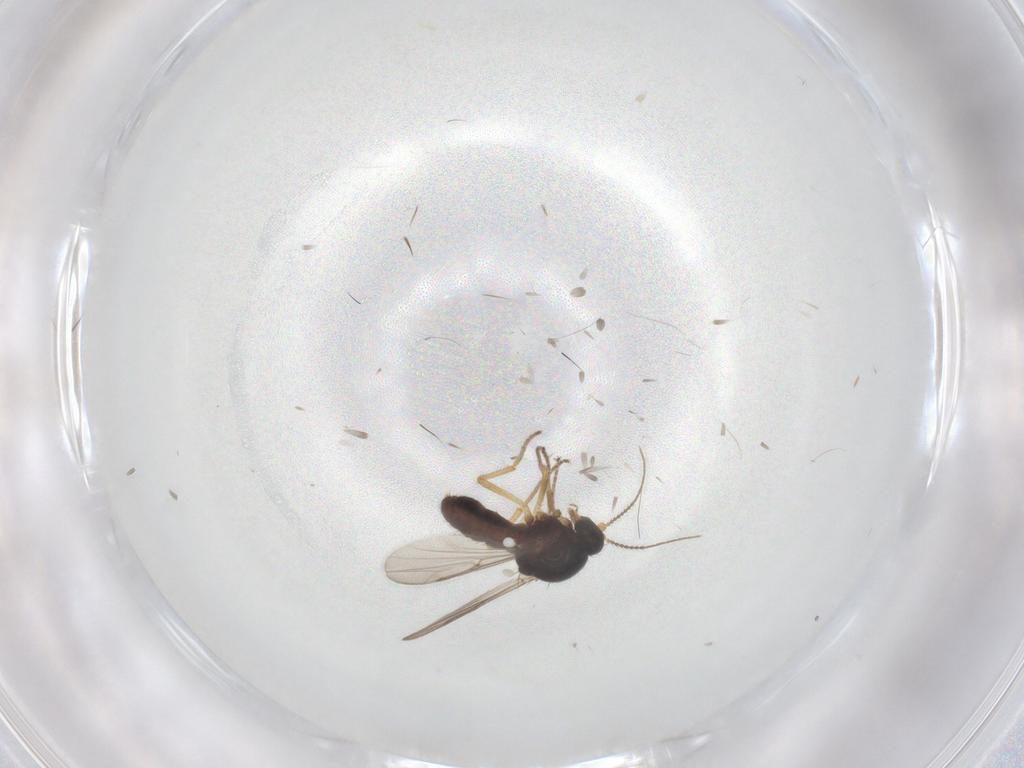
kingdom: Animalia
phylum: Arthropoda
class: Insecta
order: Diptera
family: Ceratopogonidae
